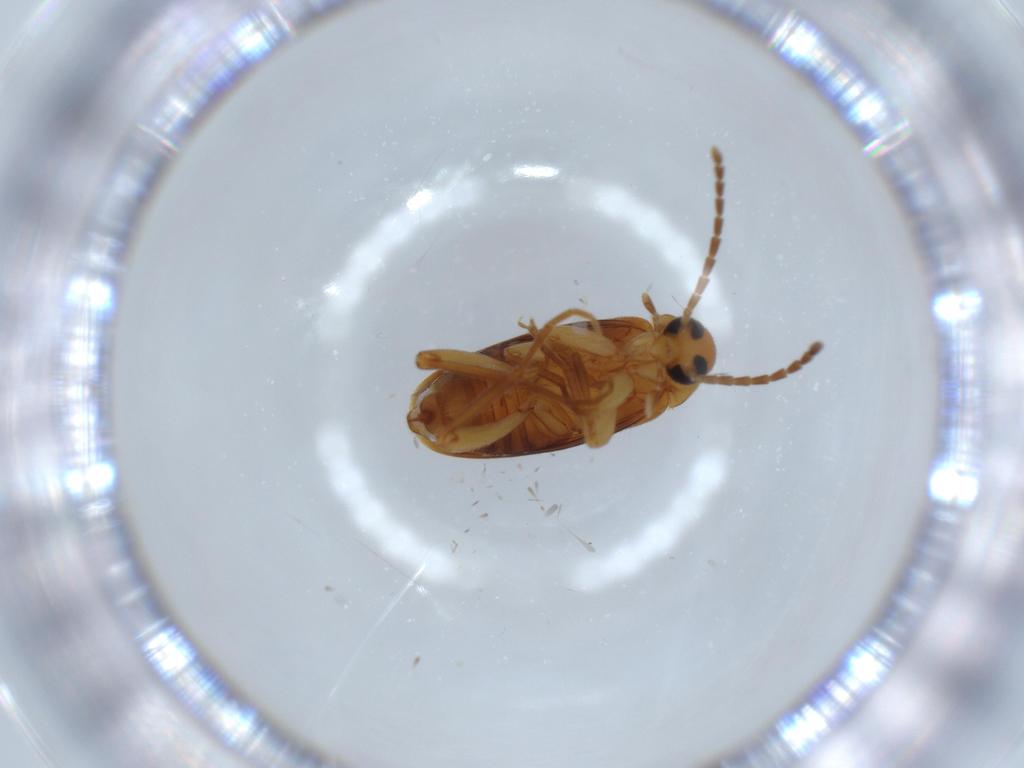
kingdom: Animalia
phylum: Arthropoda
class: Insecta
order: Coleoptera
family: Scraptiidae
